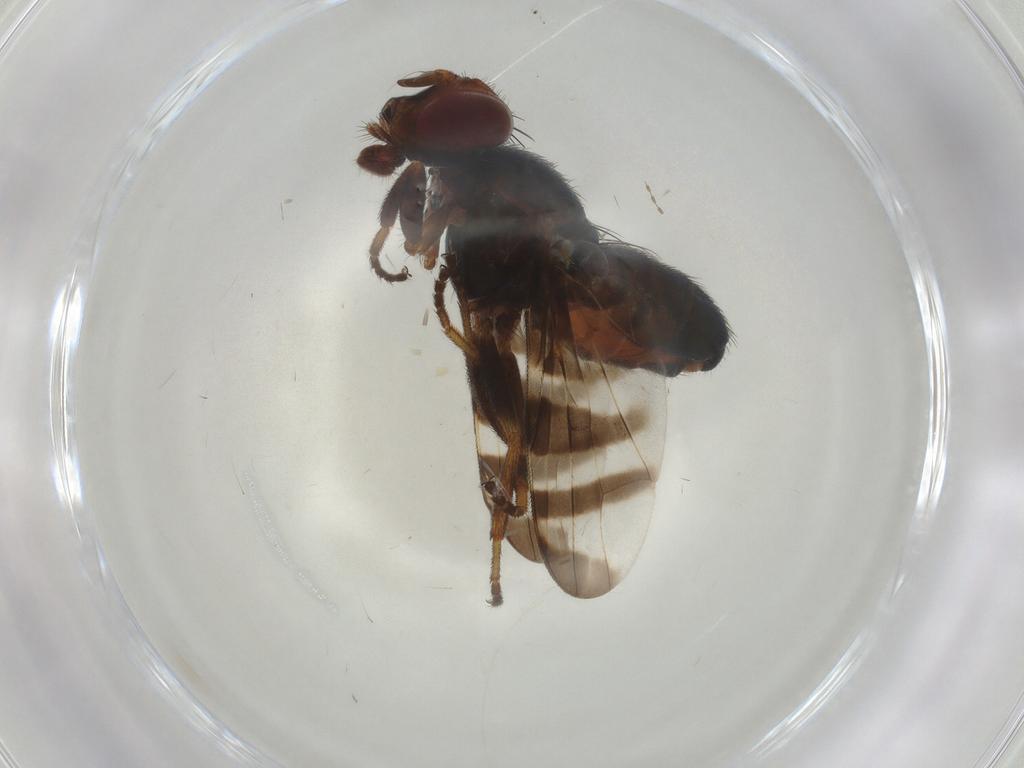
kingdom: Animalia
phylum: Arthropoda
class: Insecta
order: Diptera
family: Platystomatidae
